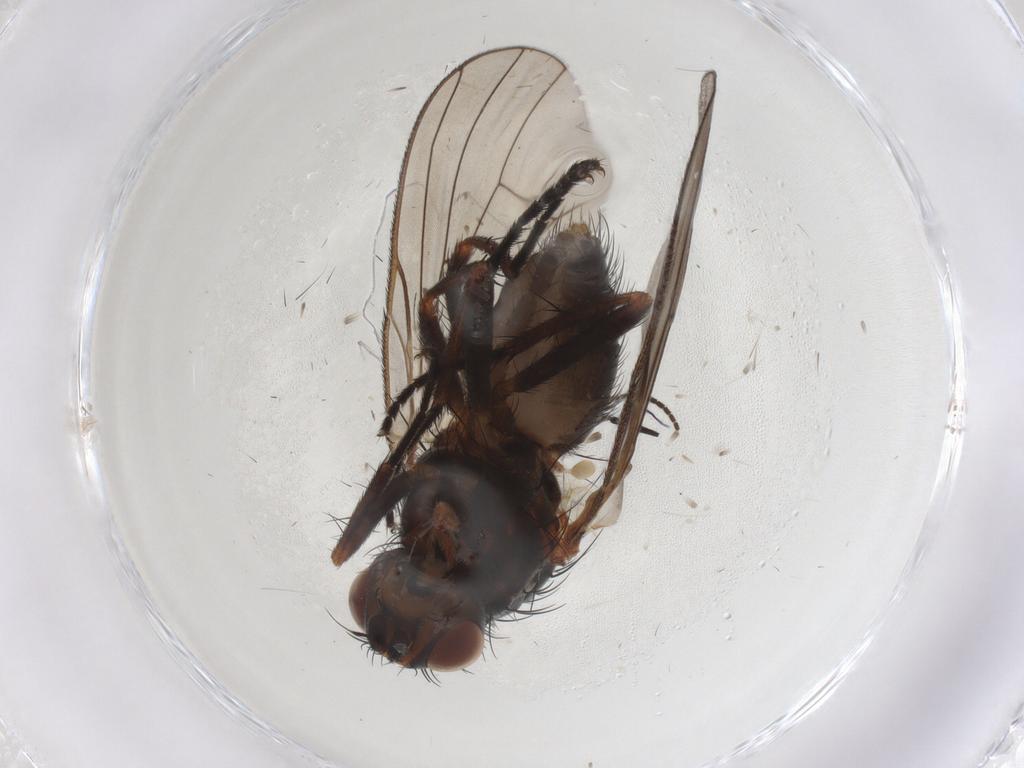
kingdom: Animalia
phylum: Arthropoda
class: Insecta
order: Diptera
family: Anthomyiidae
